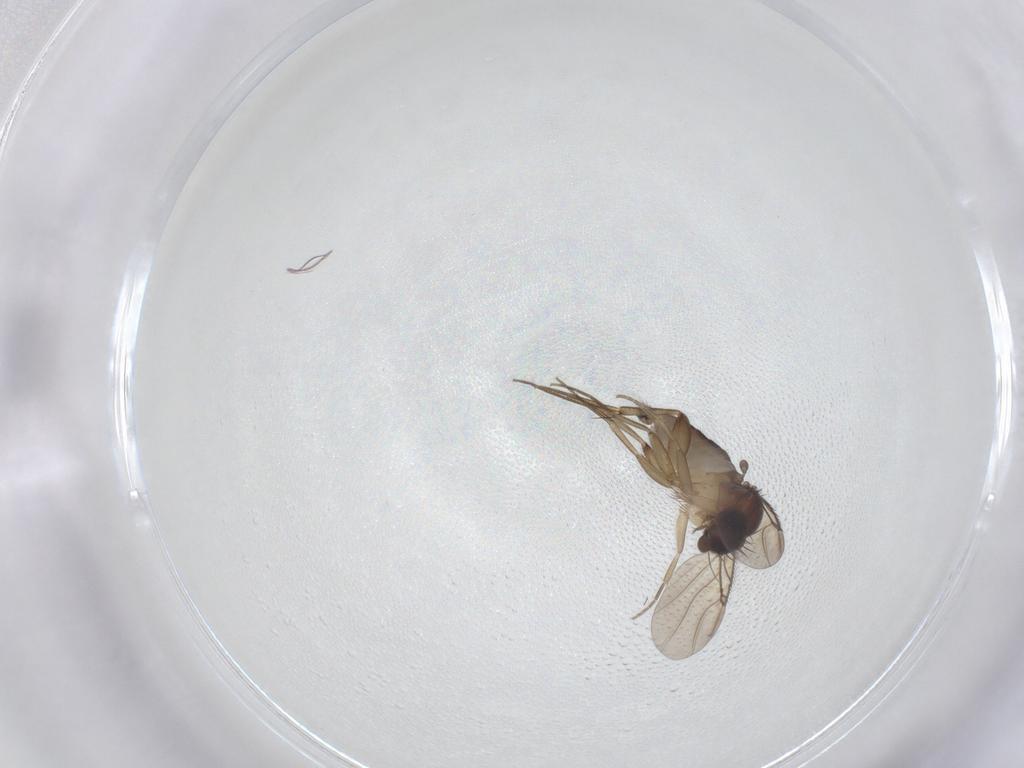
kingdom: Animalia
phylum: Arthropoda
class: Insecta
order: Diptera
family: Phoridae
